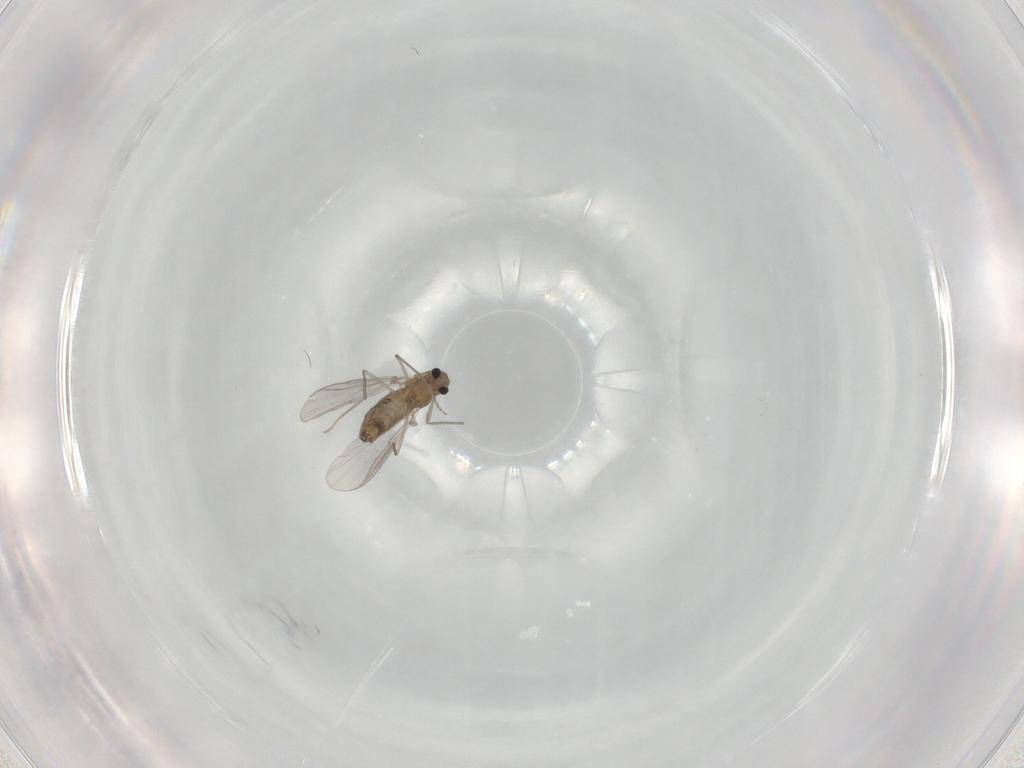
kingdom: Animalia
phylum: Arthropoda
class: Insecta
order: Diptera
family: Chironomidae
